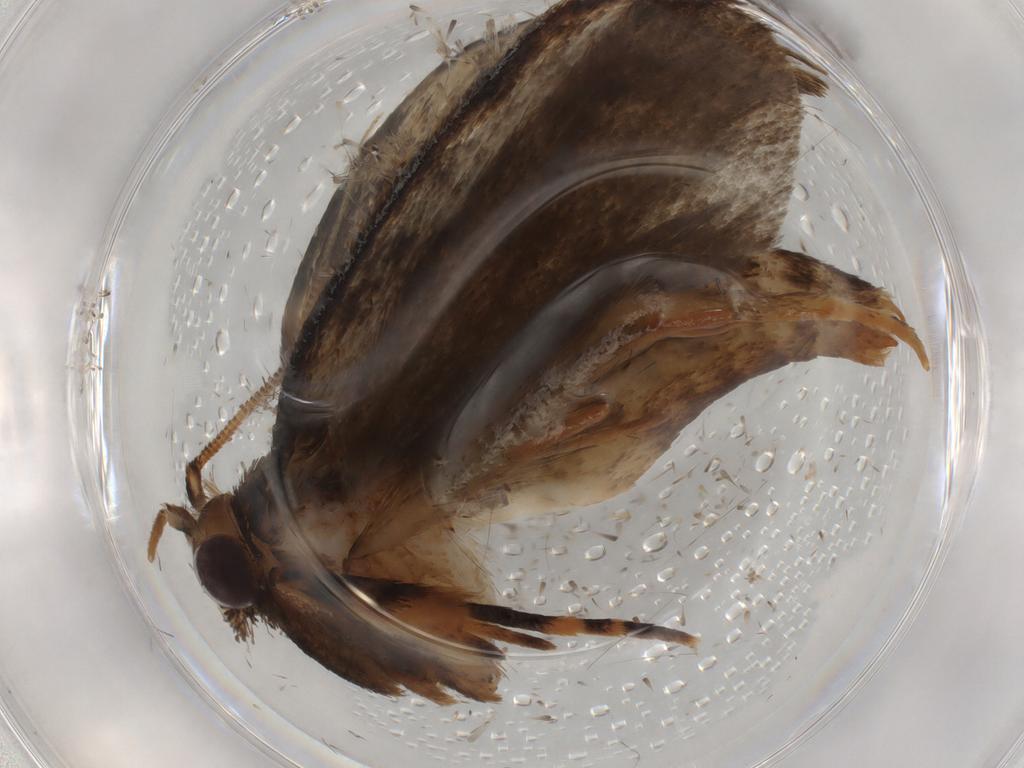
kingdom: Animalia
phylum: Arthropoda
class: Insecta
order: Lepidoptera
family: Tineidae
